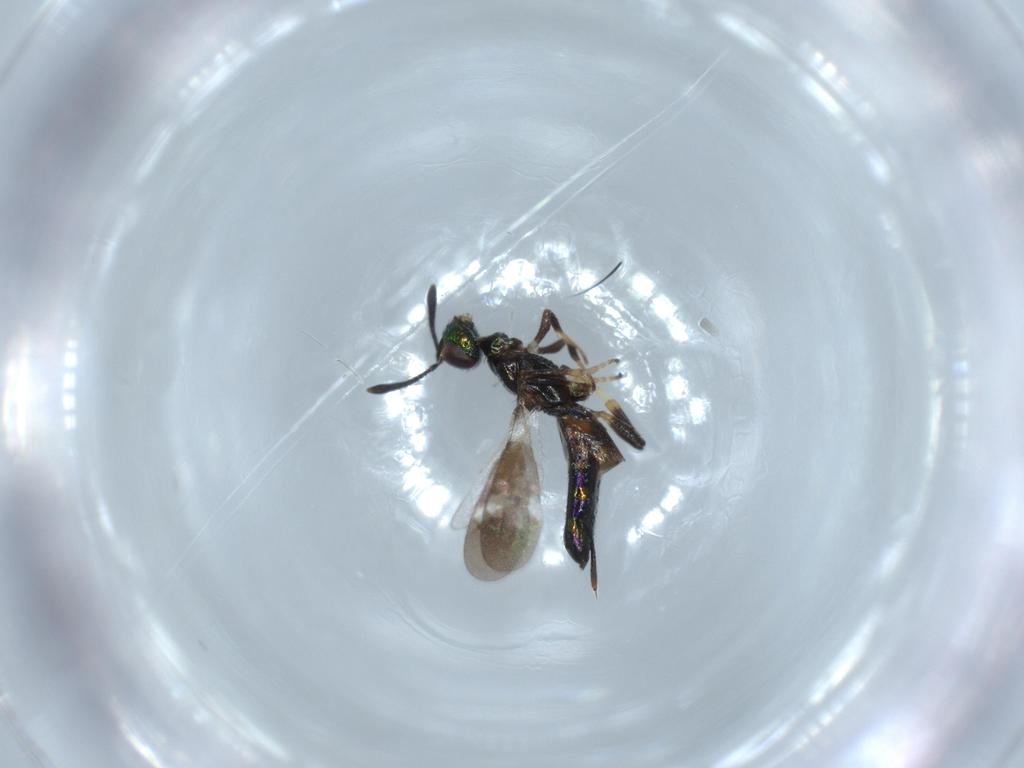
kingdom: Animalia
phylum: Arthropoda
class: Insecta
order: Hymenoptera
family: Eupelmidae
